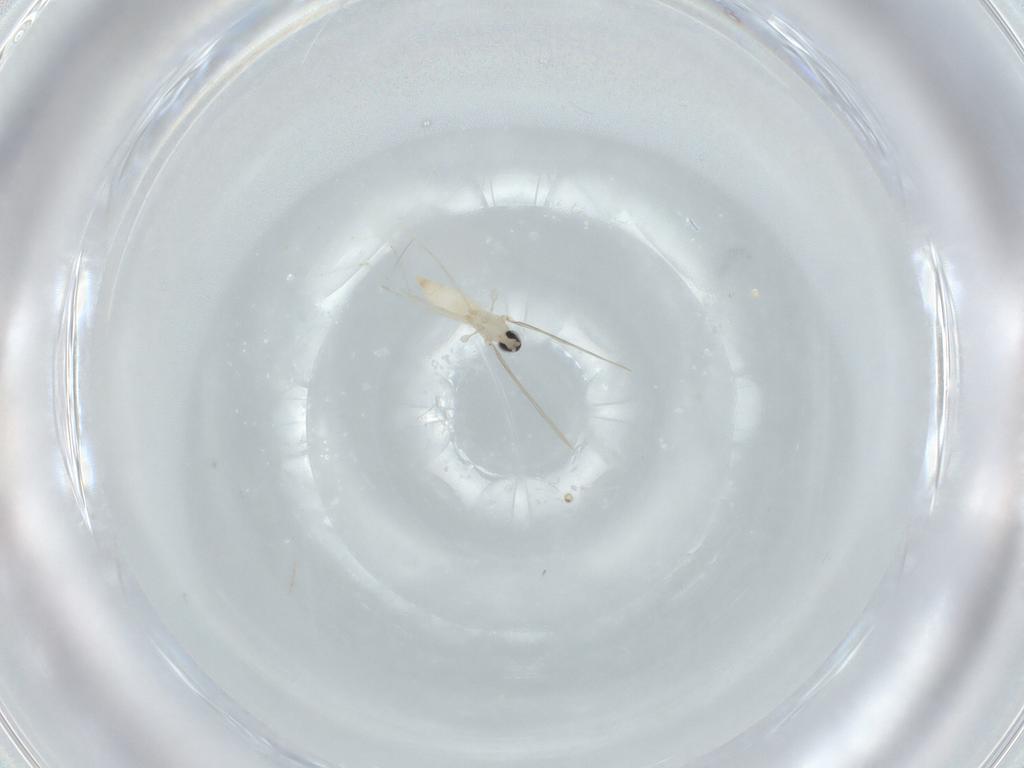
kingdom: Animalia
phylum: Arthropoda
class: Insecta
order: Diptera
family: Cecidomyiidae
